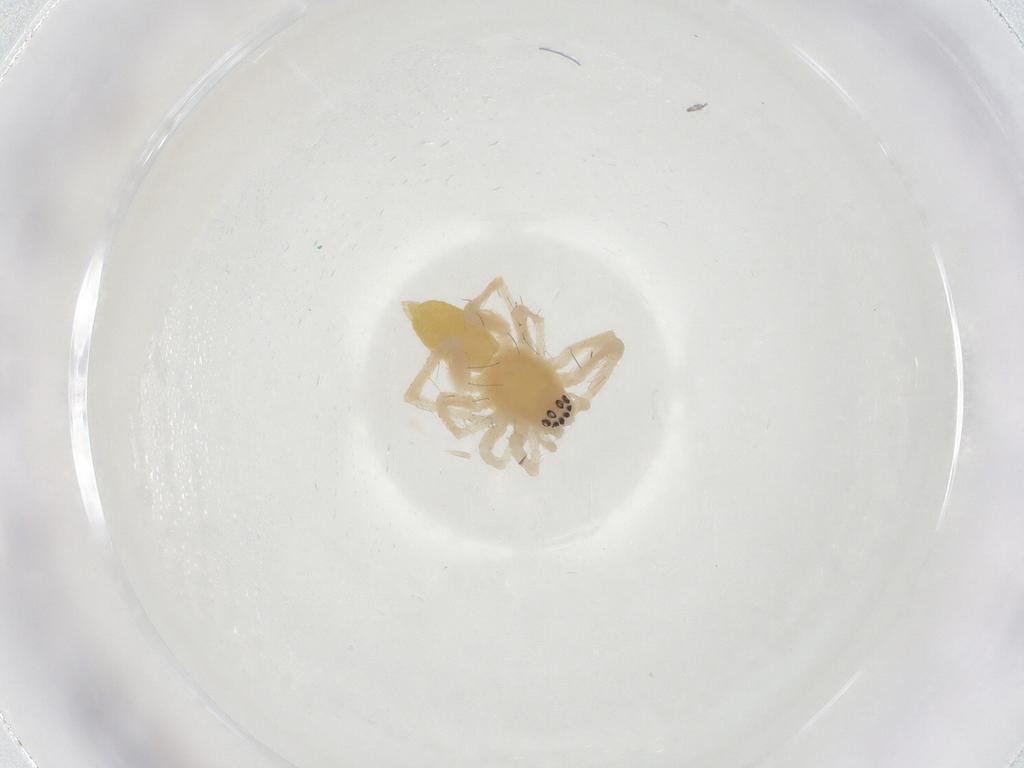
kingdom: Animalia
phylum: Arthropoda
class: Arachnida
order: Araneae
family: Anyphaenidae
